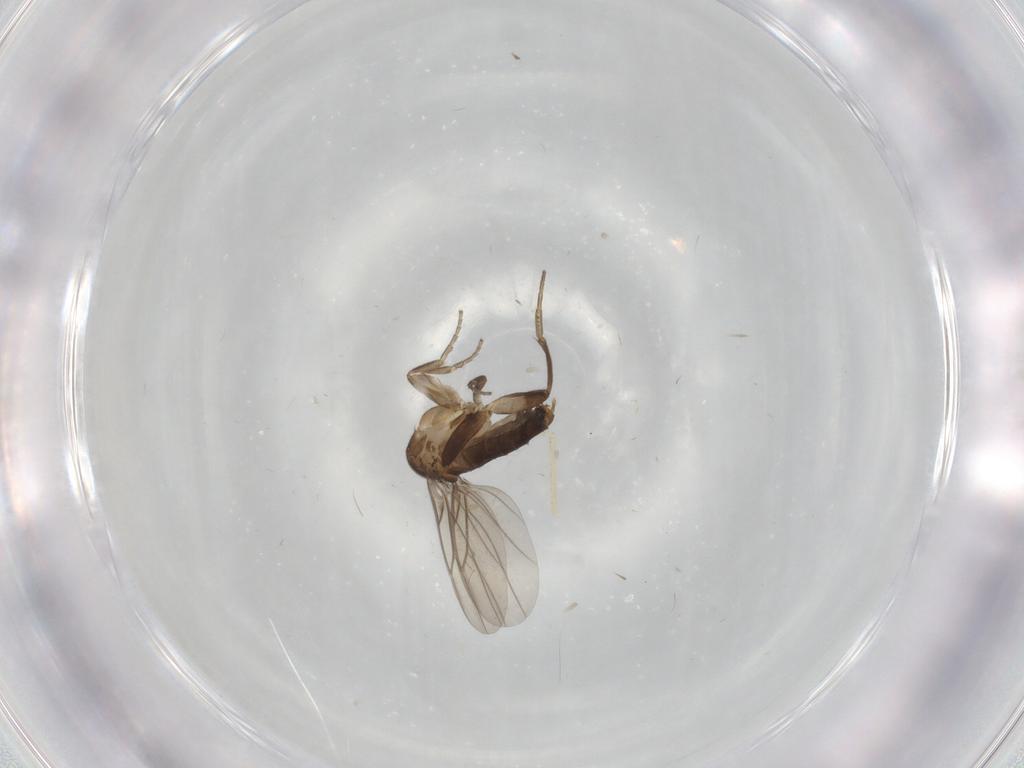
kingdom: Animalia
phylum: Arthropoda
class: Insecta
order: Diptera
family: Phoridae
